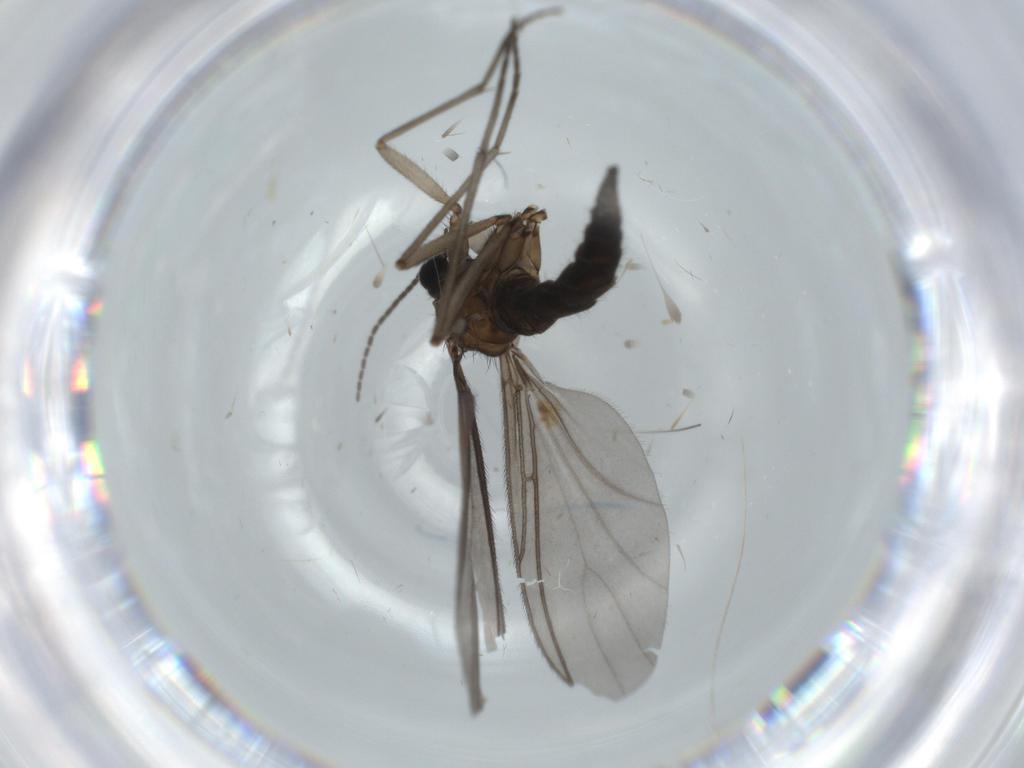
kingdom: Animalia
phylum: Arthropoda
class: Insecta
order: Diptera
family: Sciaridae
